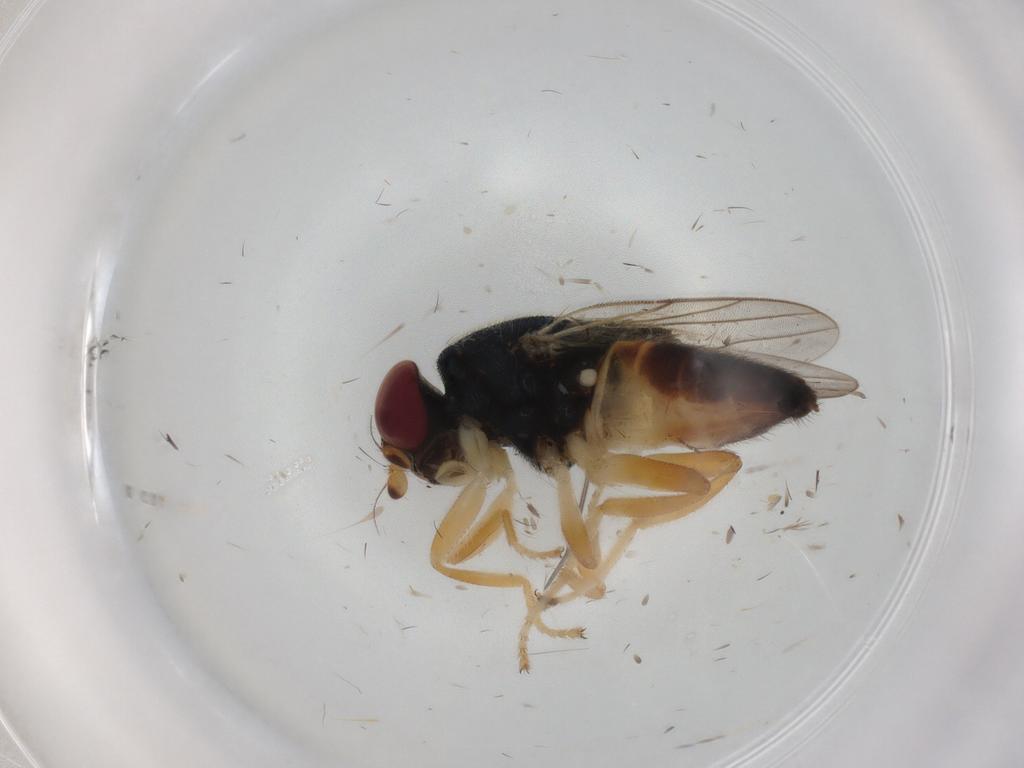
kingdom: Animalia
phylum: Arthropoda
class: Insecta
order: Diptera
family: Chloropidae
